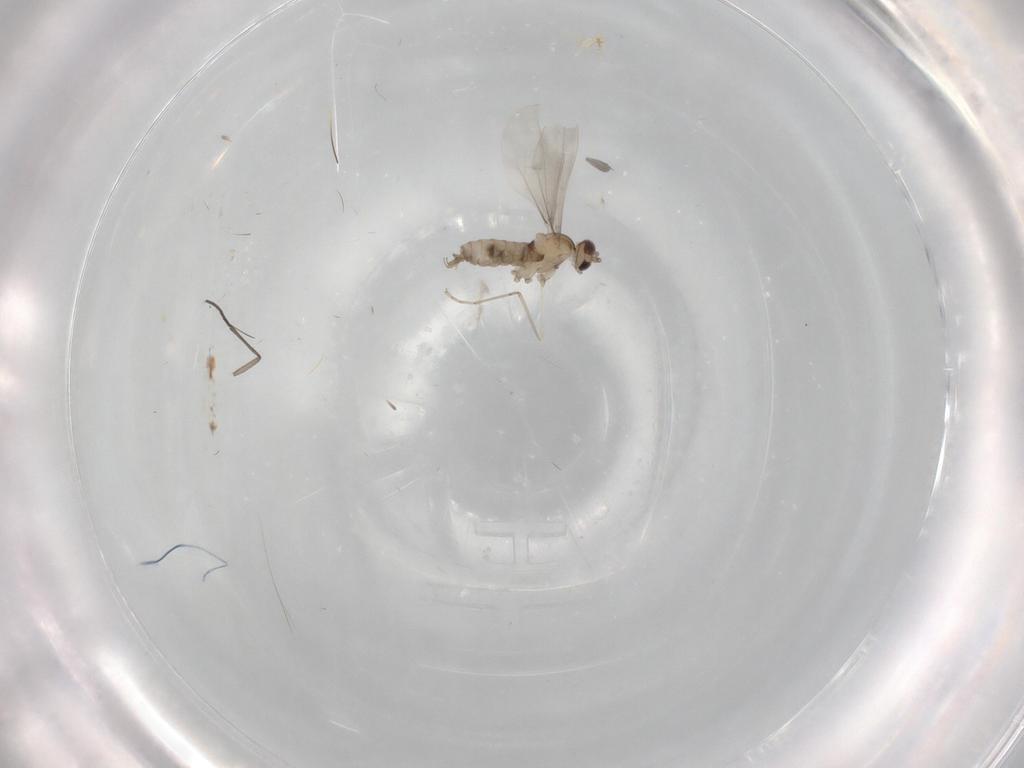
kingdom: Animalia
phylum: Arthropoda
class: Insecta
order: Diptera
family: Cecidomyiidae
